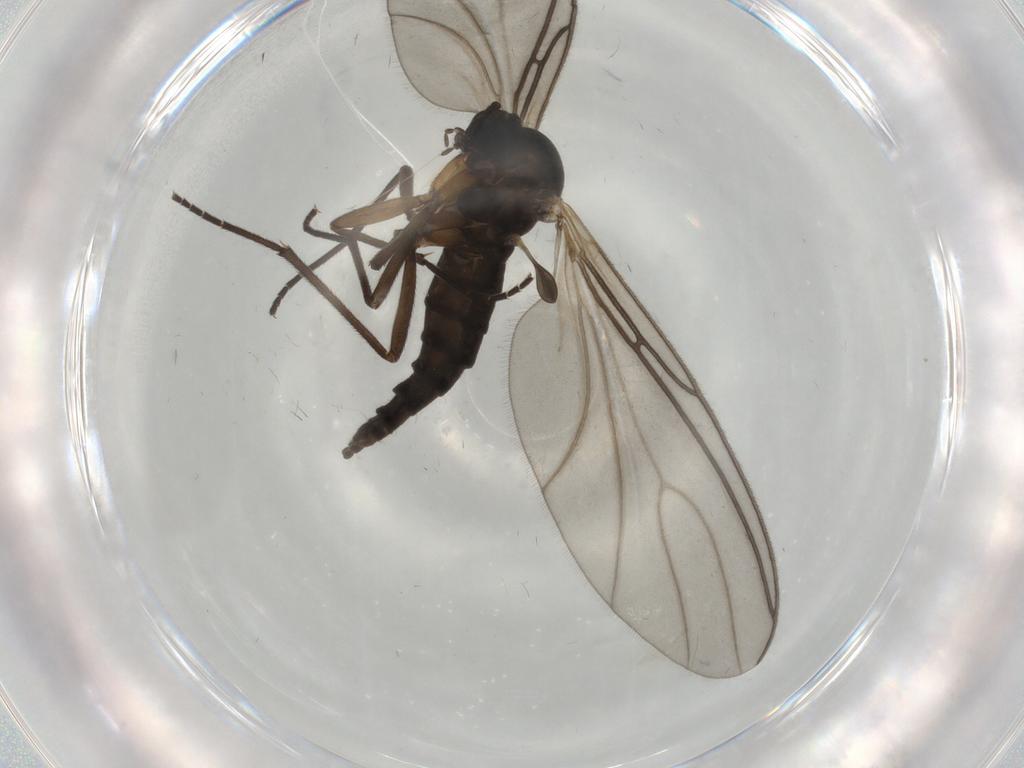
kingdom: Animalia
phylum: Arthropoda
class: Insecta
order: Diptera
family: Sciaridae
